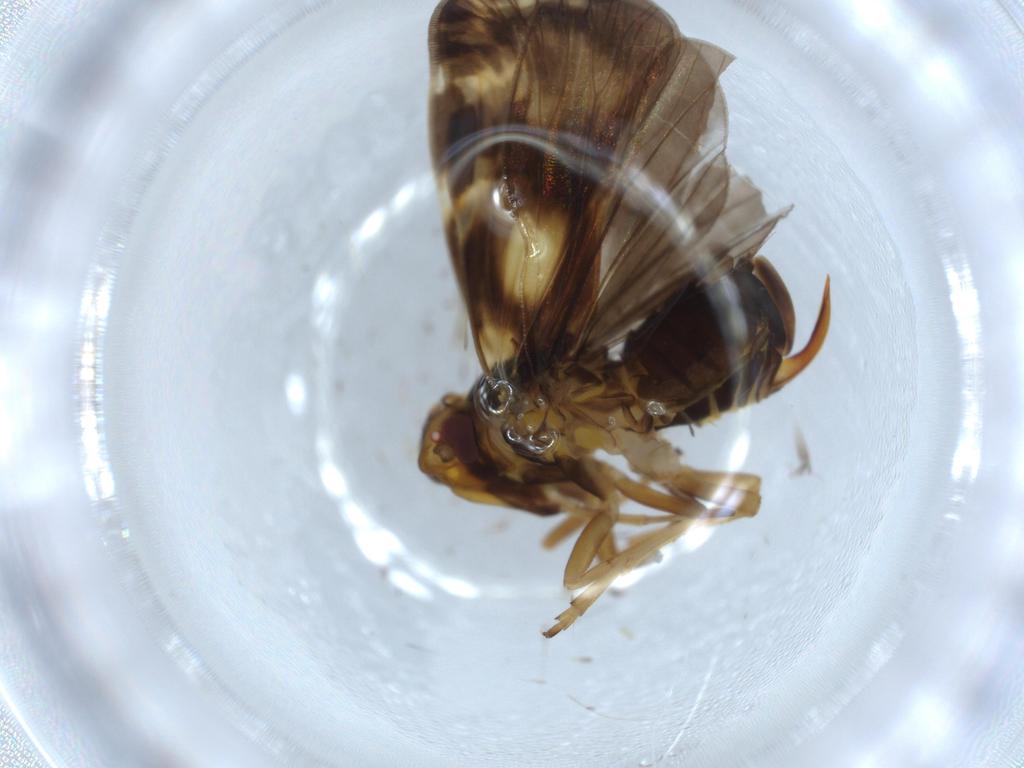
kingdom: Animalia
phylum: Arthropoda
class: Insecta
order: Hemiptera
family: Cixiidae
